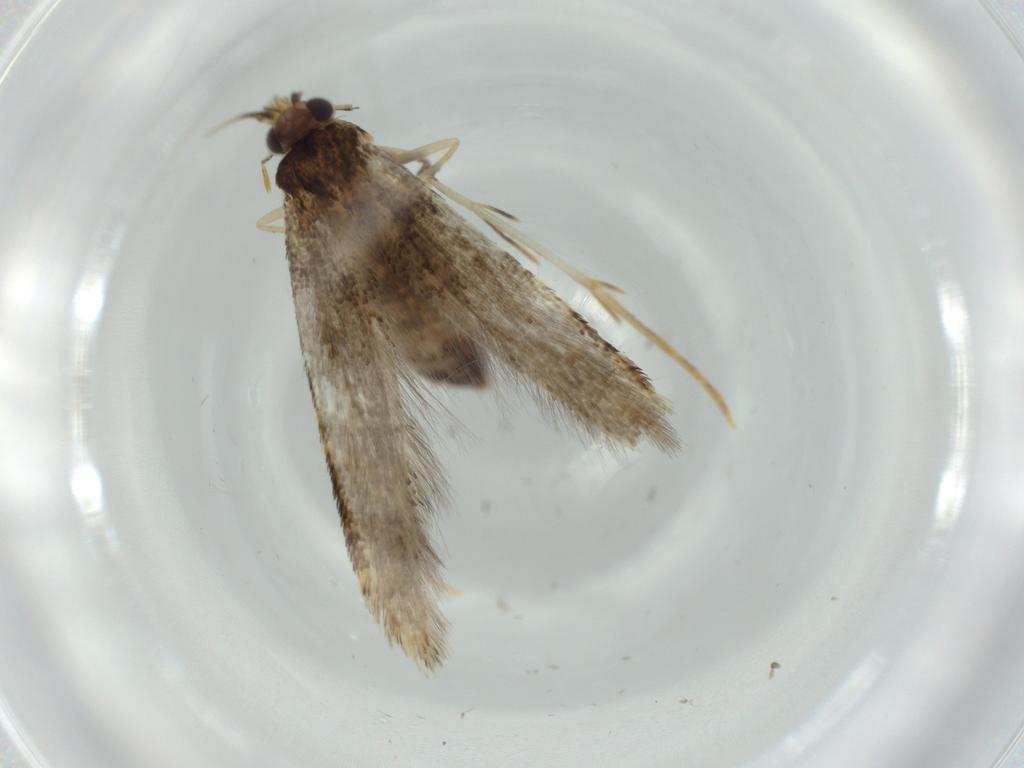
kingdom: Animalia
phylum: Arthropoda
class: Insecta
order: Lepidoptera
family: Tineidae
